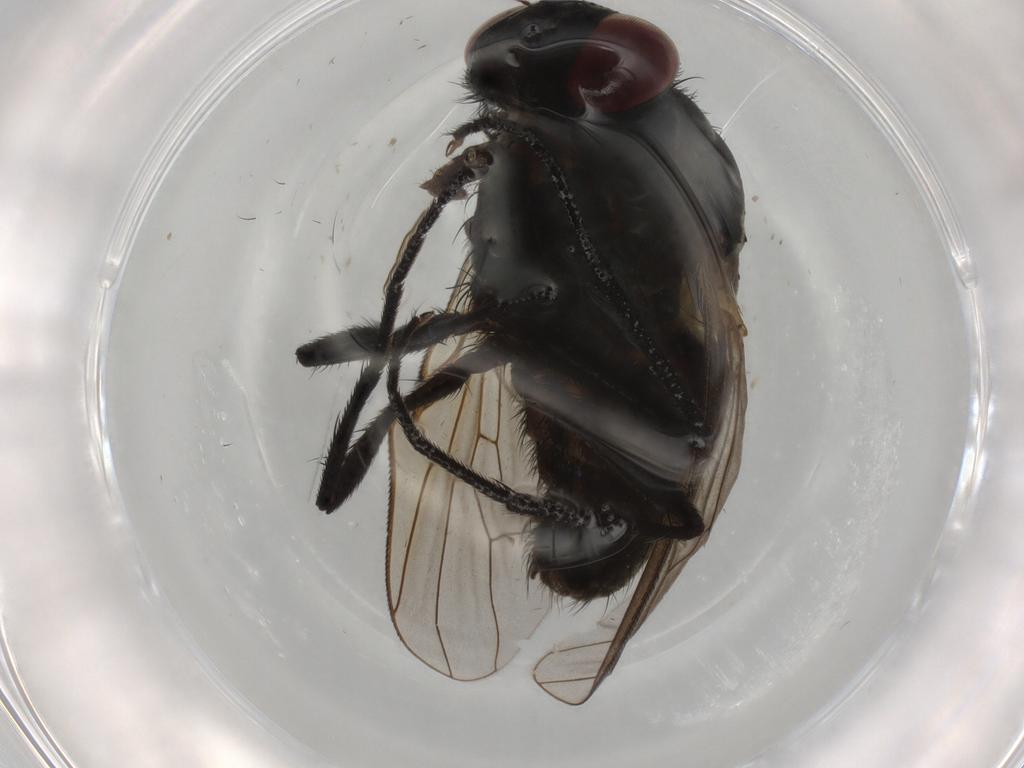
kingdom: Animalia
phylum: Arthropoda
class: Insecta
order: Diptera
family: Muscidae
